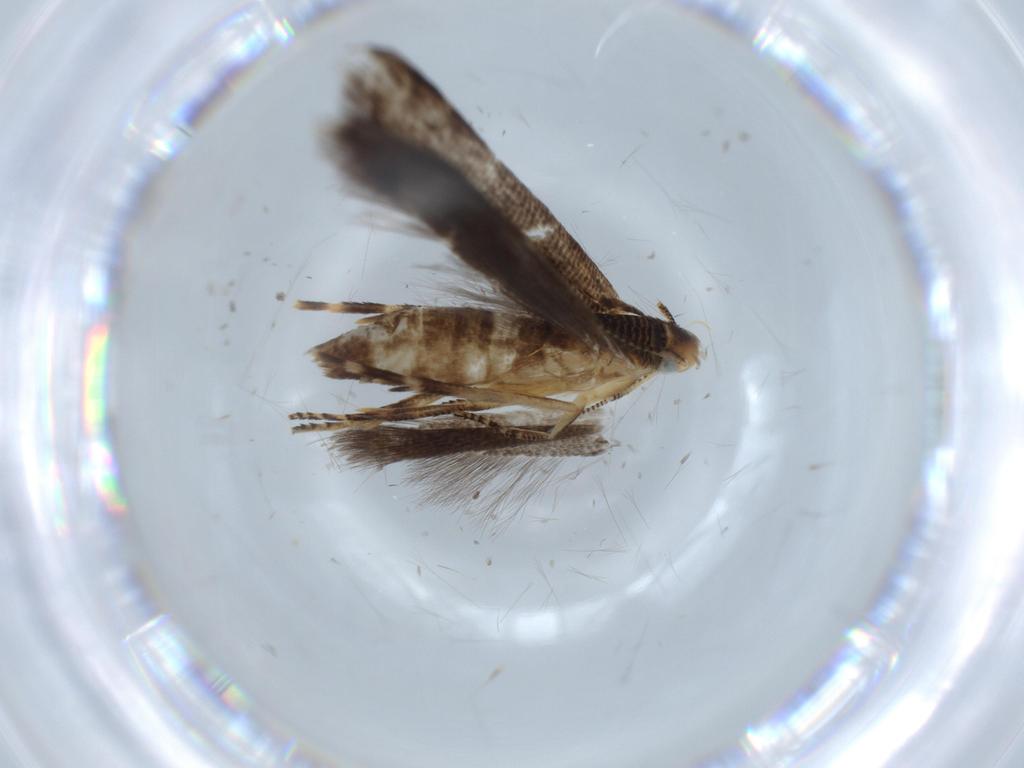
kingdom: Animalia
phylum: Arthropoda
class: Insecta
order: Lepidoptera
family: Gelechiidae
